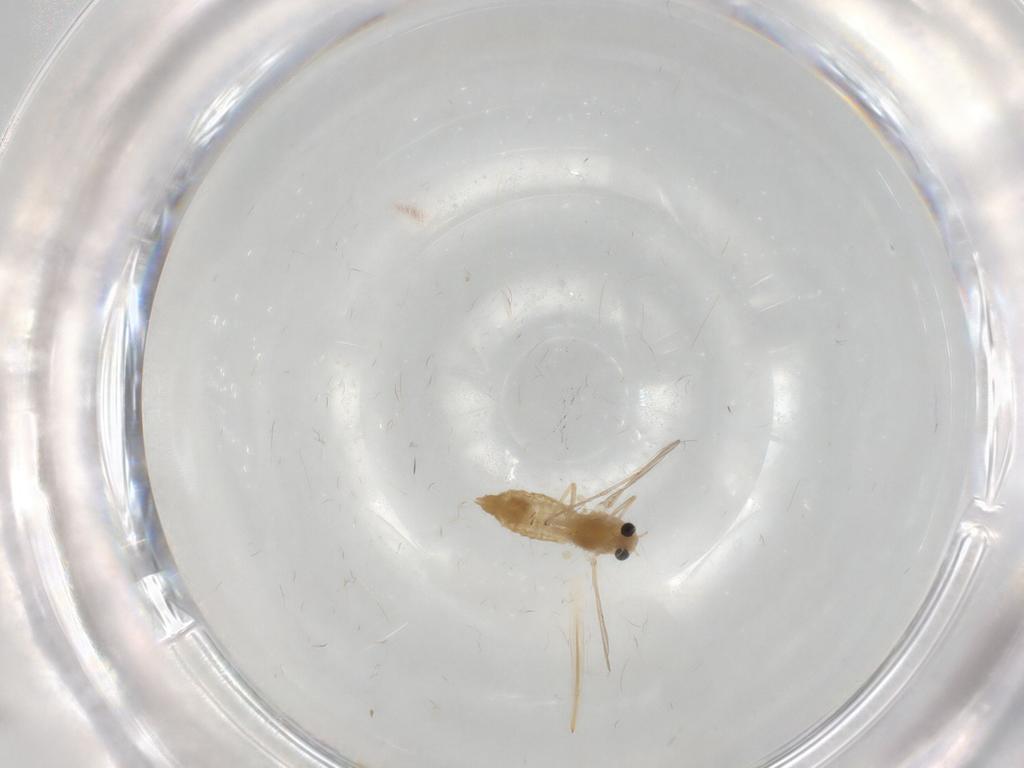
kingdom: Animalia
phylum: Arthropoda
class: Insecta
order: Diptera
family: Chironomidae
